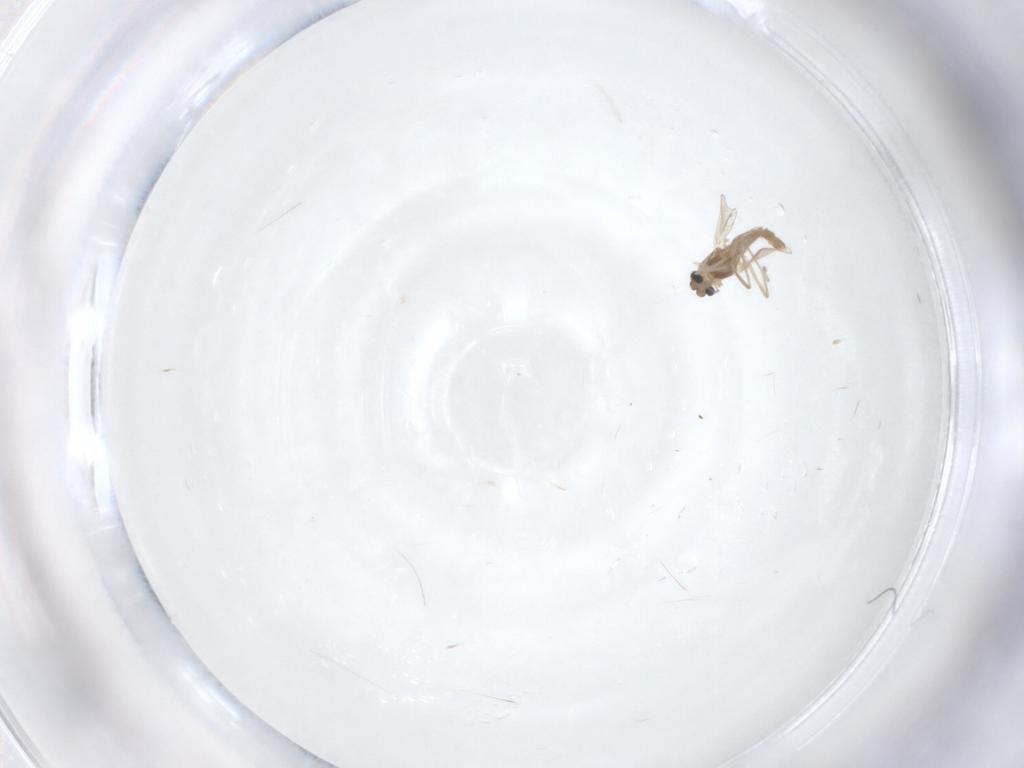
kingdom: Animalia
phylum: Arthropoda
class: Insecta
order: Diptera
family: Chironomidae
